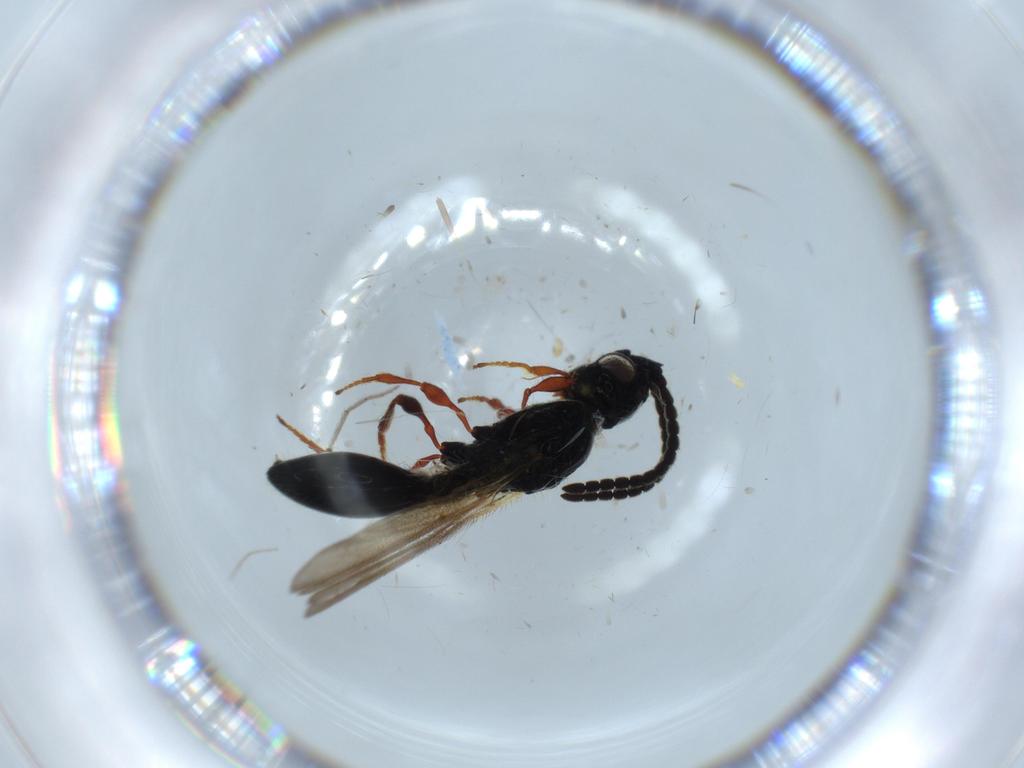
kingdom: Animalia
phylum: Arthropoda
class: Insecta
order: Hymenoptera
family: Diapriidae
